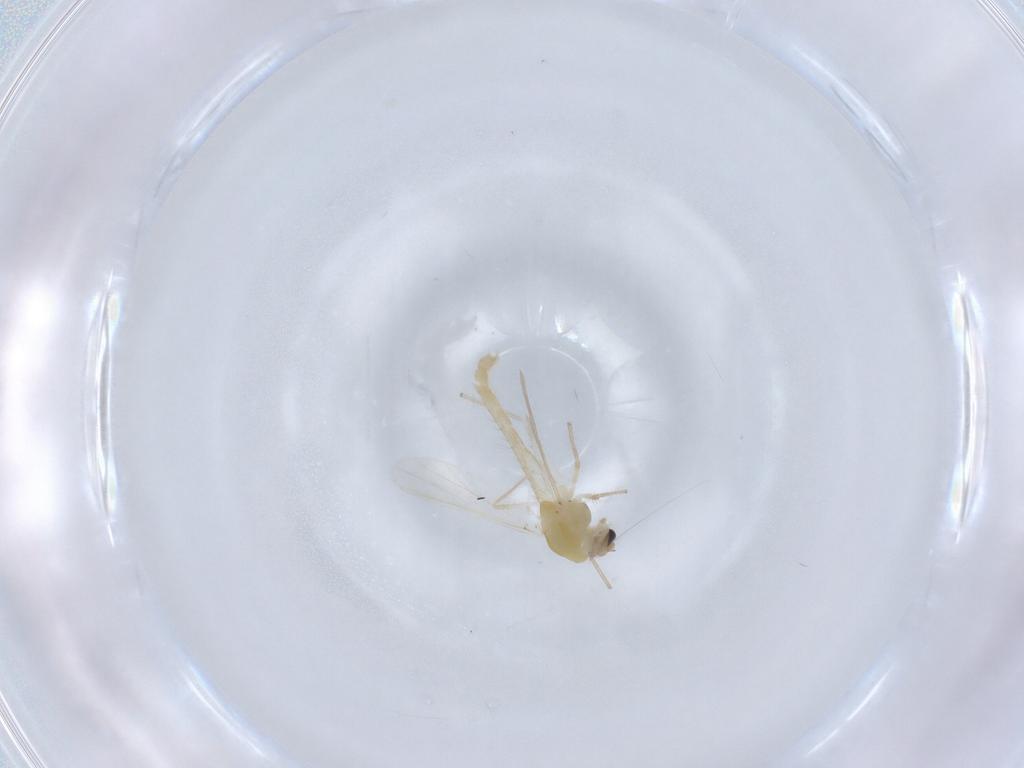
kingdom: Animalia
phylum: Arthropoda
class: Insecta
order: Diptera
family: Chironomidae
